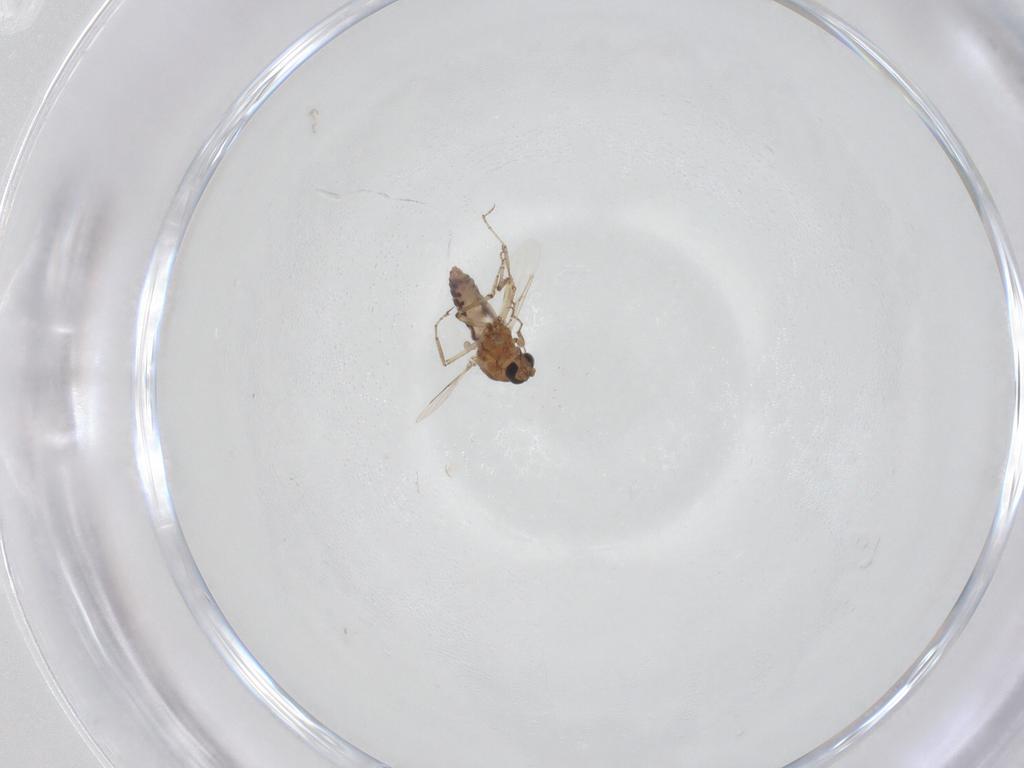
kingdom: Animalia
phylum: Arthropoda
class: Insecta
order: Diptera
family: Ceratopogonidae
